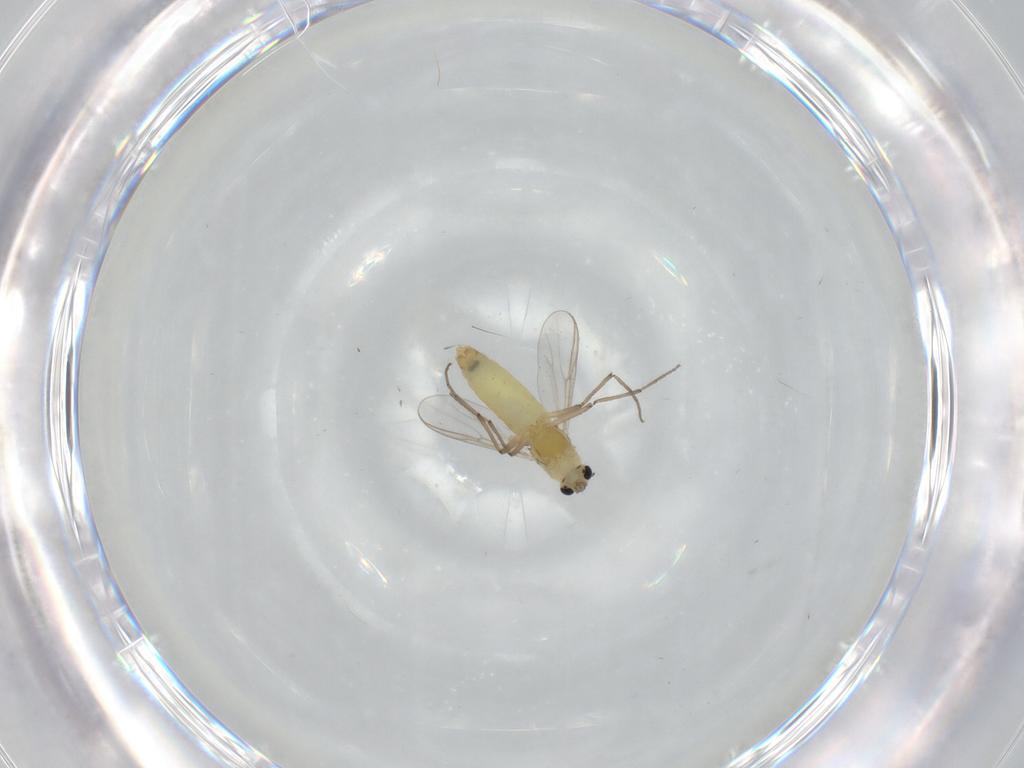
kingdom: Animalia
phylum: Arthropoda
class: Insecta
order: Diptera
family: Chironomidae
